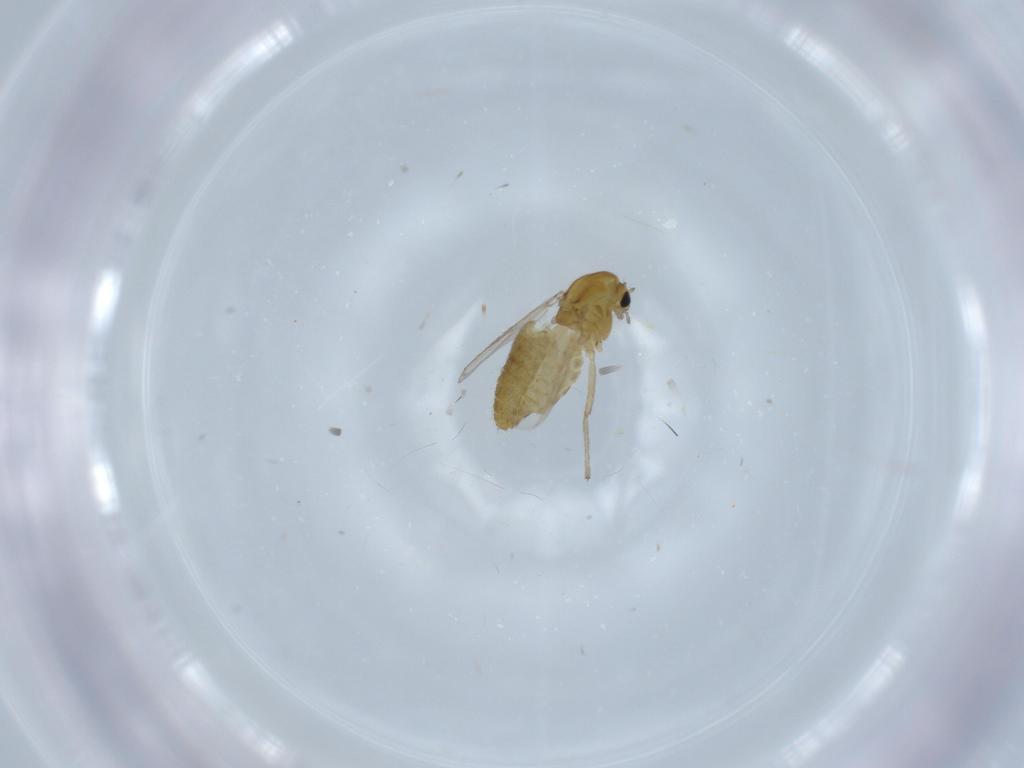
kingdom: Animalia
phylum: Arthropoda
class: Insecta
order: Diptera
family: Chironomidae
